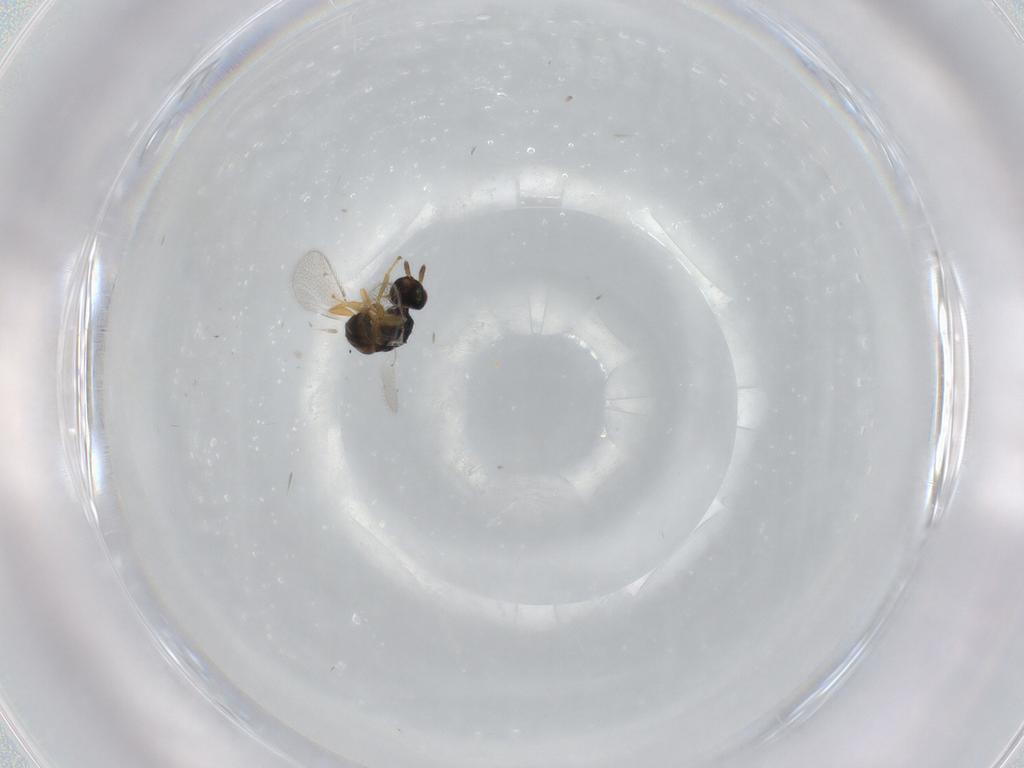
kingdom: Animalia
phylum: Arthropoda
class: Insecta
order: Hymenoptera
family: Torymidae
